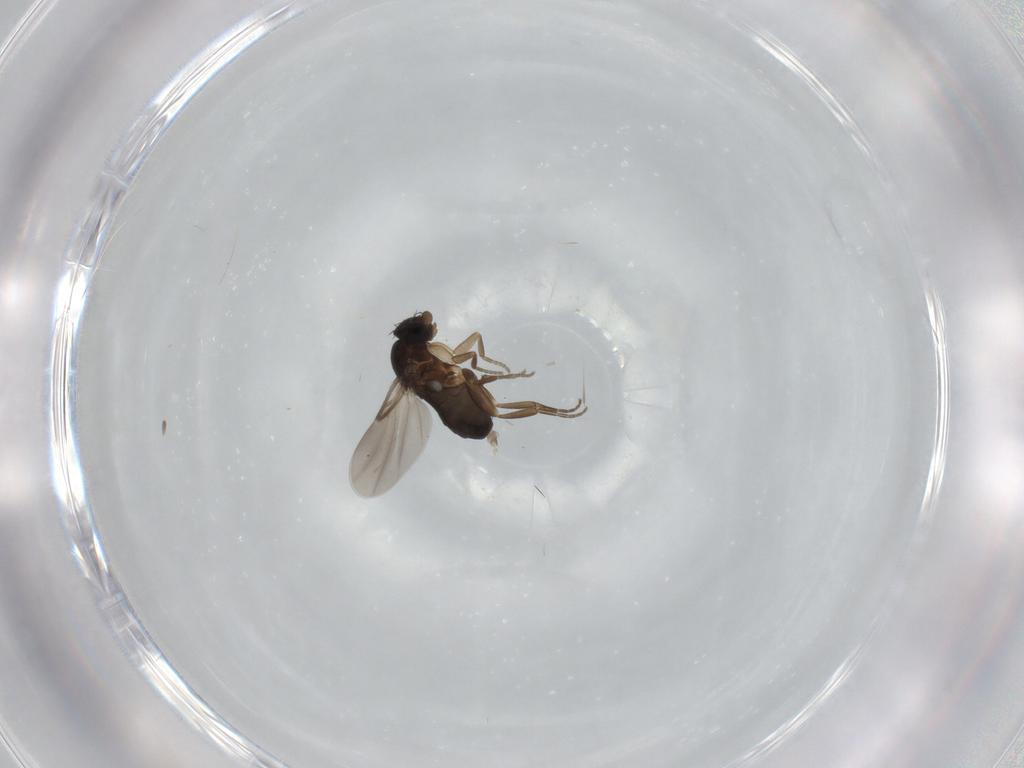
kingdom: Animalia
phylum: Arthropoda
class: Insecta
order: Diptera
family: Phoridae
